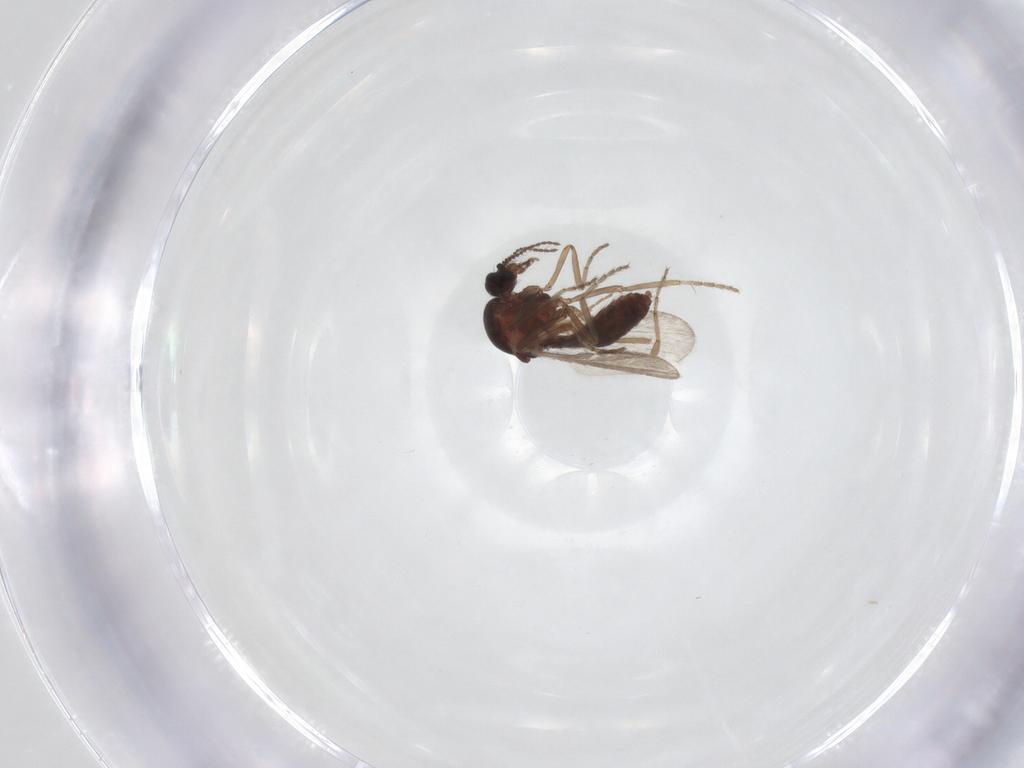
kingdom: Animalia
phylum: Arthropoda
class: Insecta
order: Diptera
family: Ceratopogonidae
